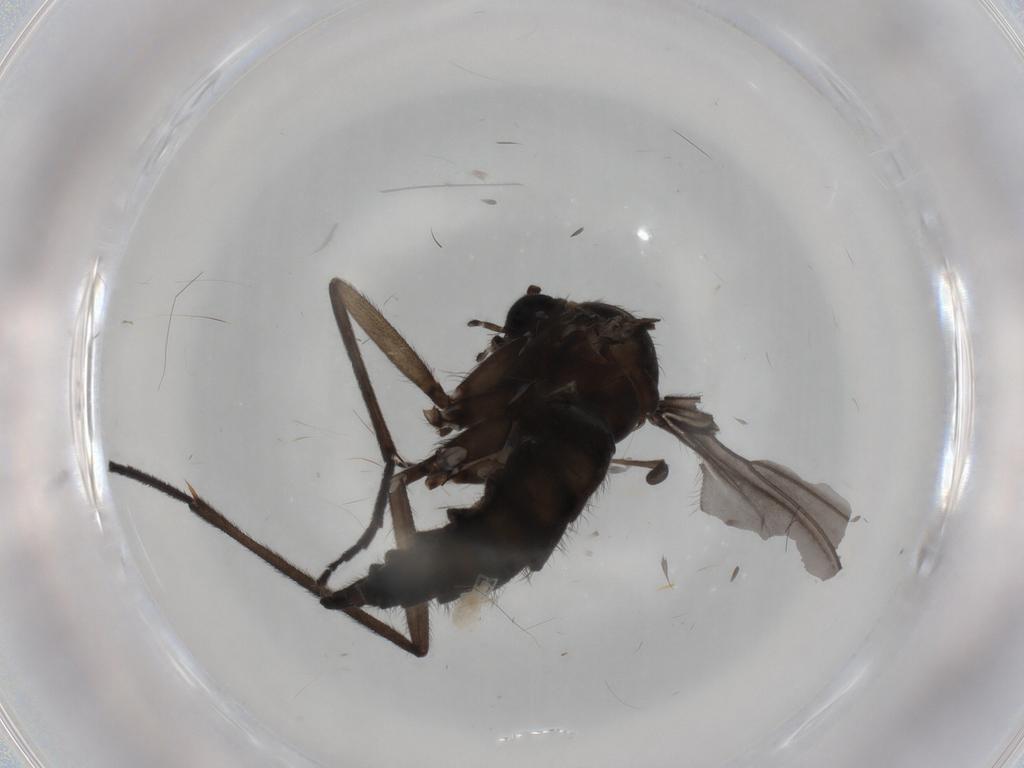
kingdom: Animalia
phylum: Arthropoda
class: Insecta
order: Diptera
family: Sciaridae
